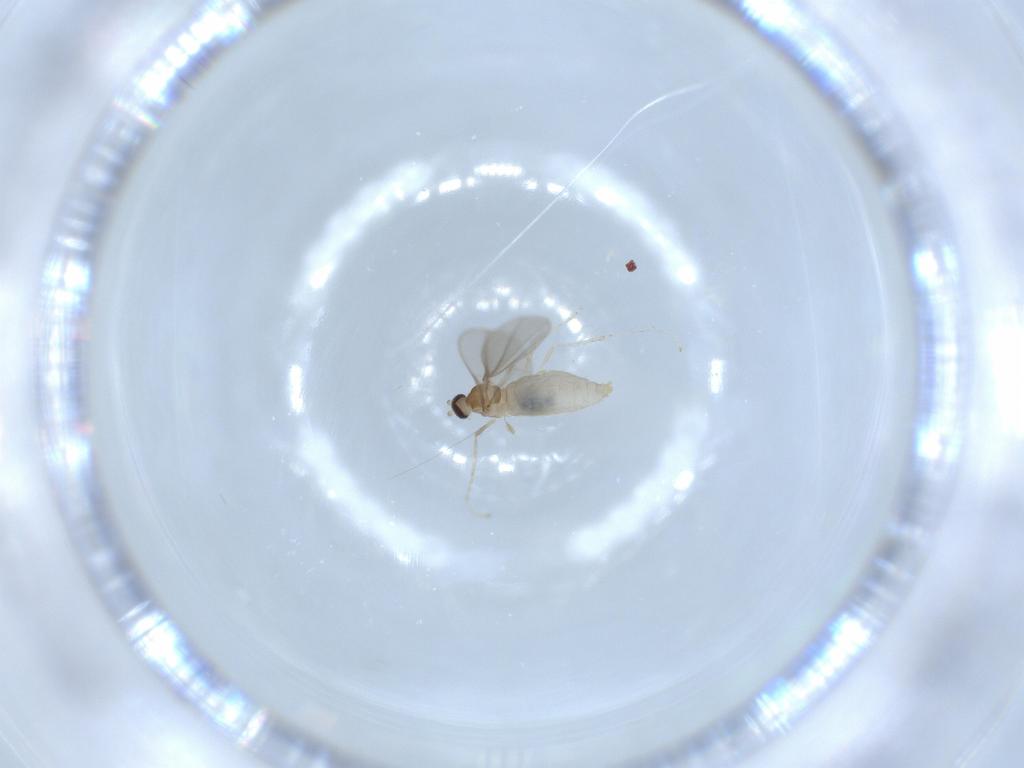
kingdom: Animalia
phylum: Arthropoda
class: Insecta
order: Diptera
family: Cecidomyiidae
